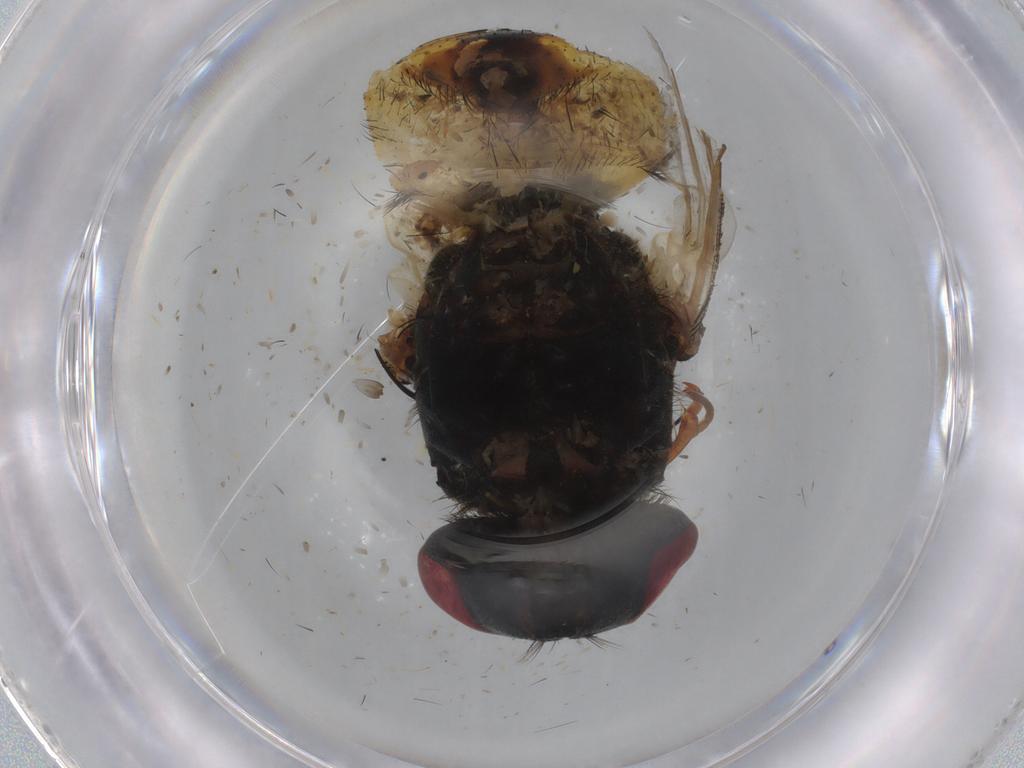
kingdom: Animalia
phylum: Arthropoda
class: Insecta
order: Diptera
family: Muscidae
